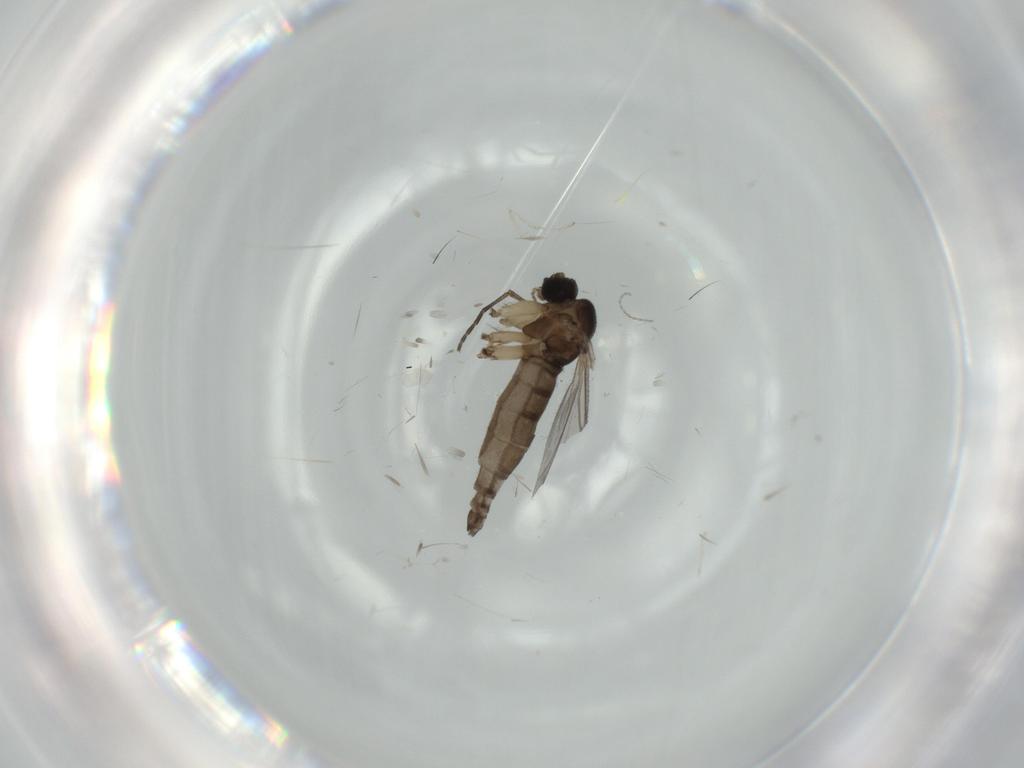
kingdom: Animalia
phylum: Arthropoda
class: Insecta
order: Diptera
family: Cecidomyiidae
